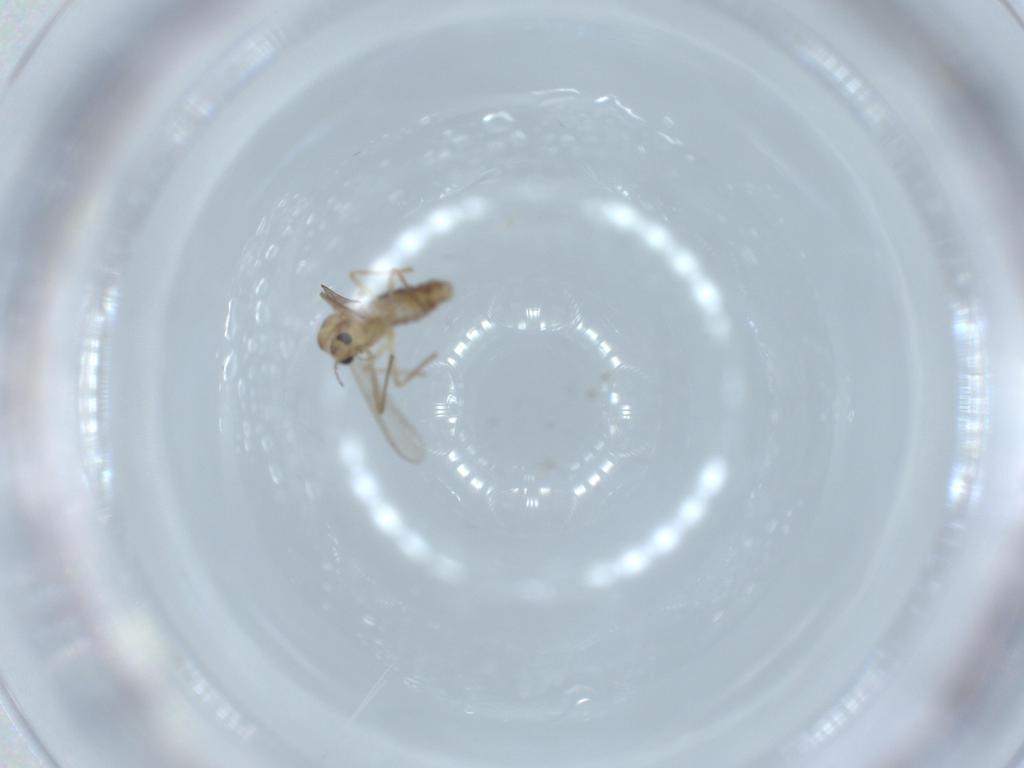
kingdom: Animalia
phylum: Arthropoda
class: Insecta
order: Diptera
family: Chironomidae
